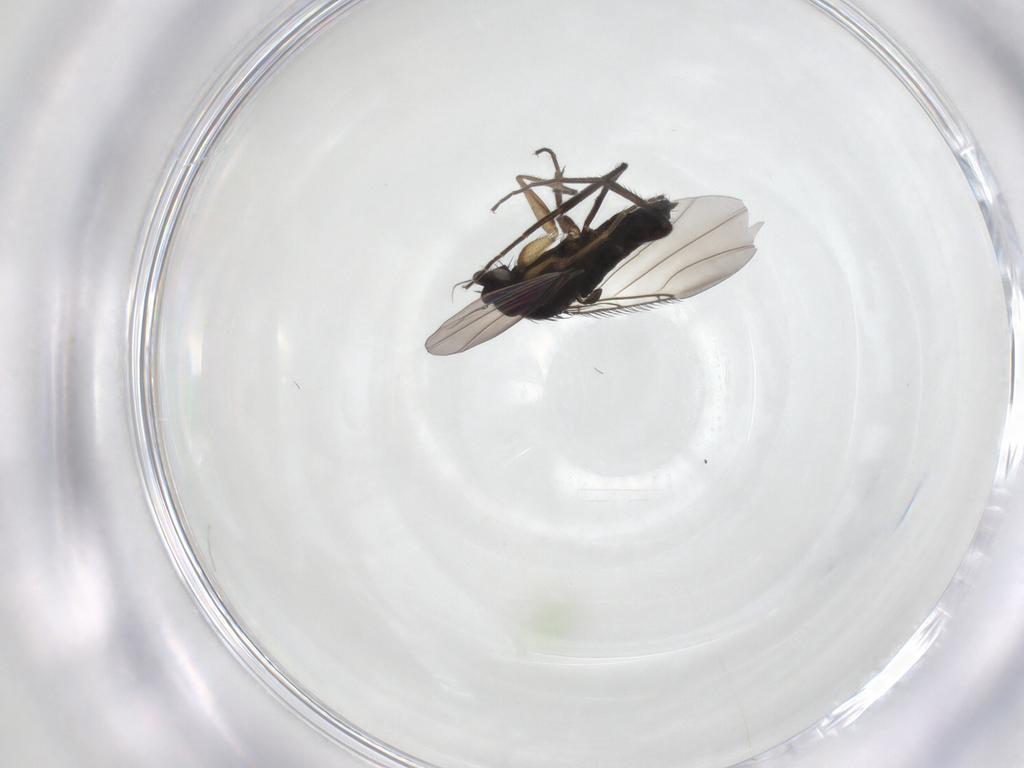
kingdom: Animalia
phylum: Arthropoda
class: Insecta
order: Diptera
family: Phoridae
